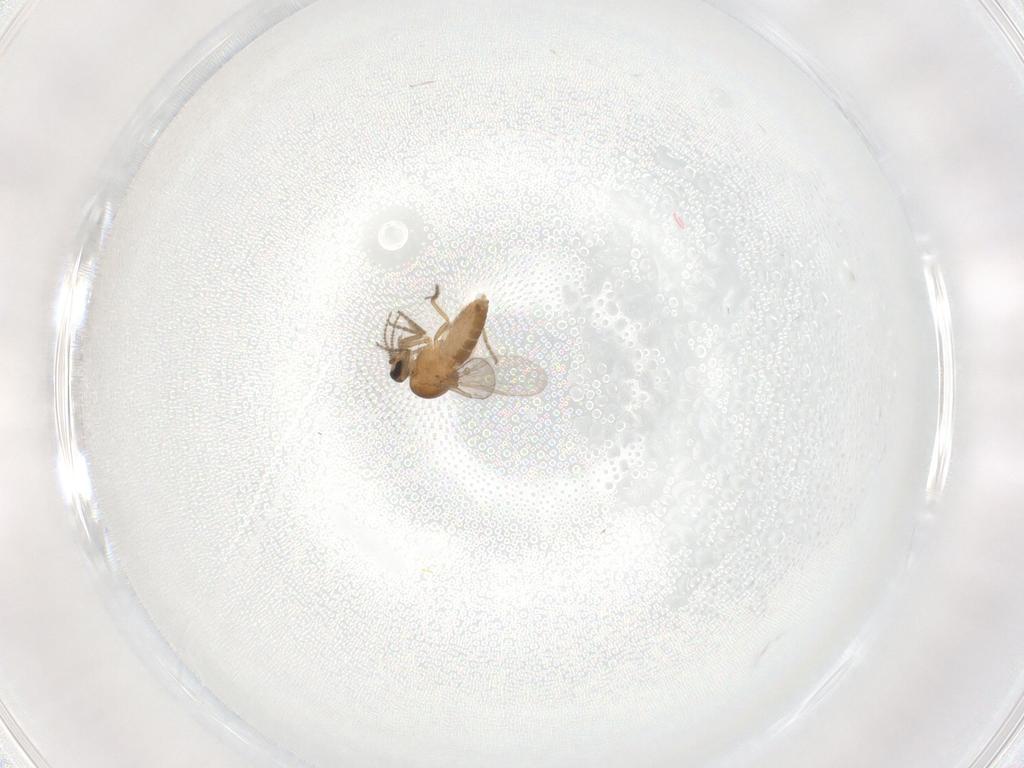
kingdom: Animalia
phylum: Arthropoda
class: Insecta
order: Diptera
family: Ceratopogonidae
